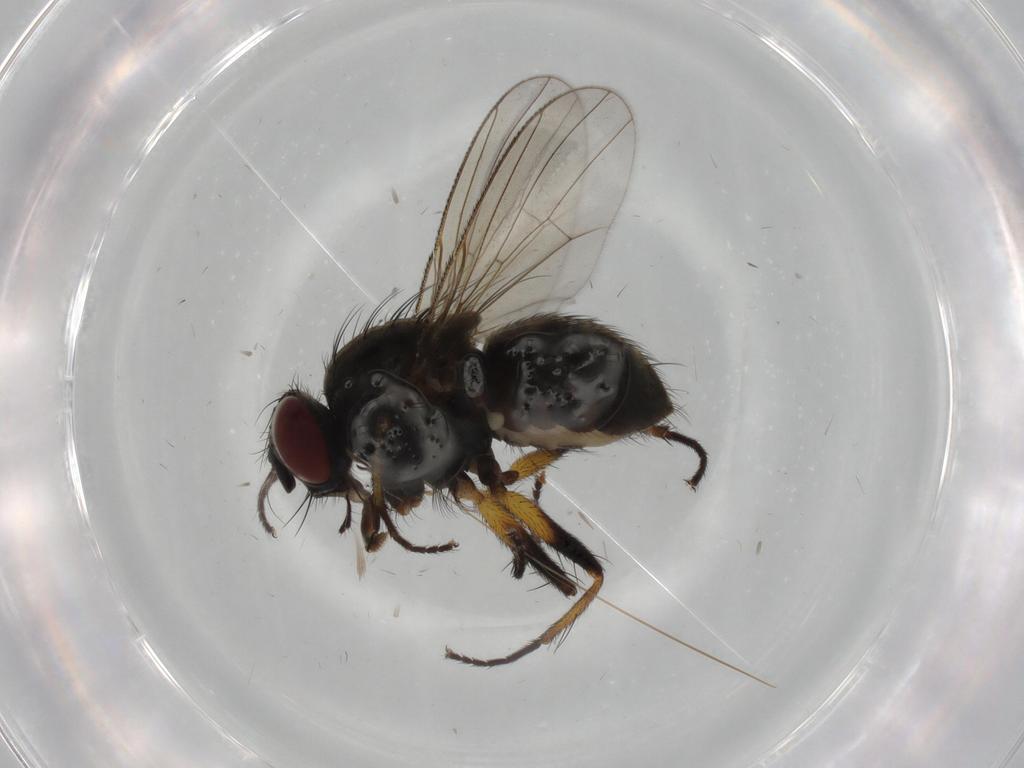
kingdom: Animalia
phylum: Arthropoda
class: Insecta
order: Diptera
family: Muscidae
